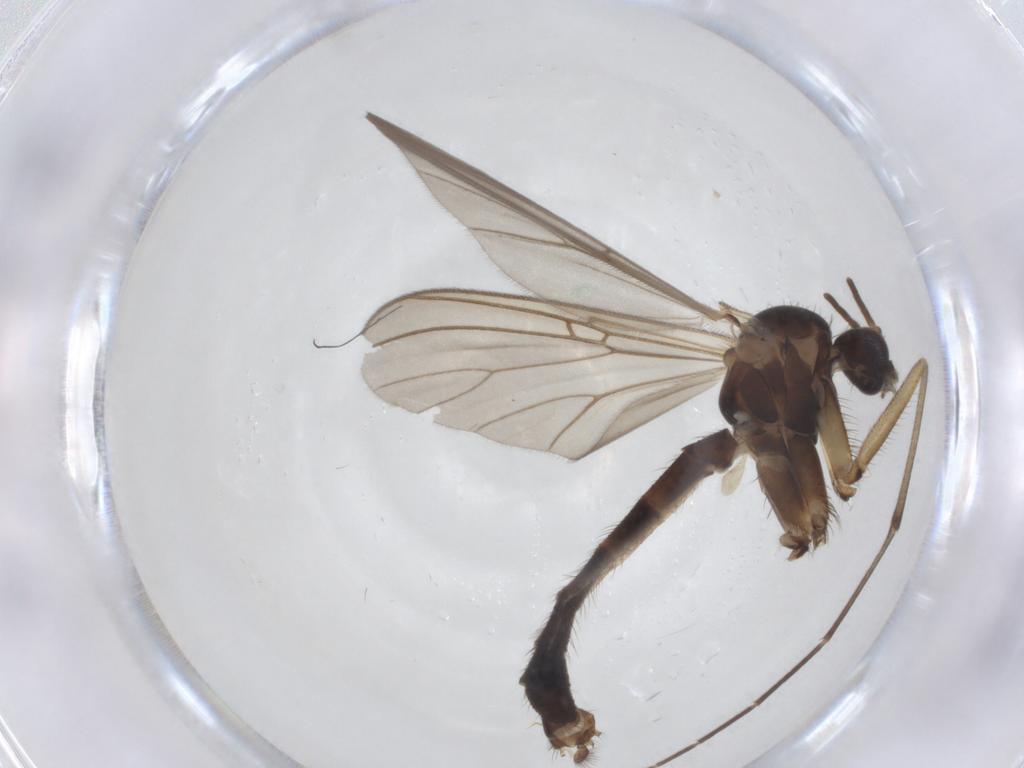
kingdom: Animalia
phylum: Arthropoda
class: Insecta
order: Diptera
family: Mycetophilidae
